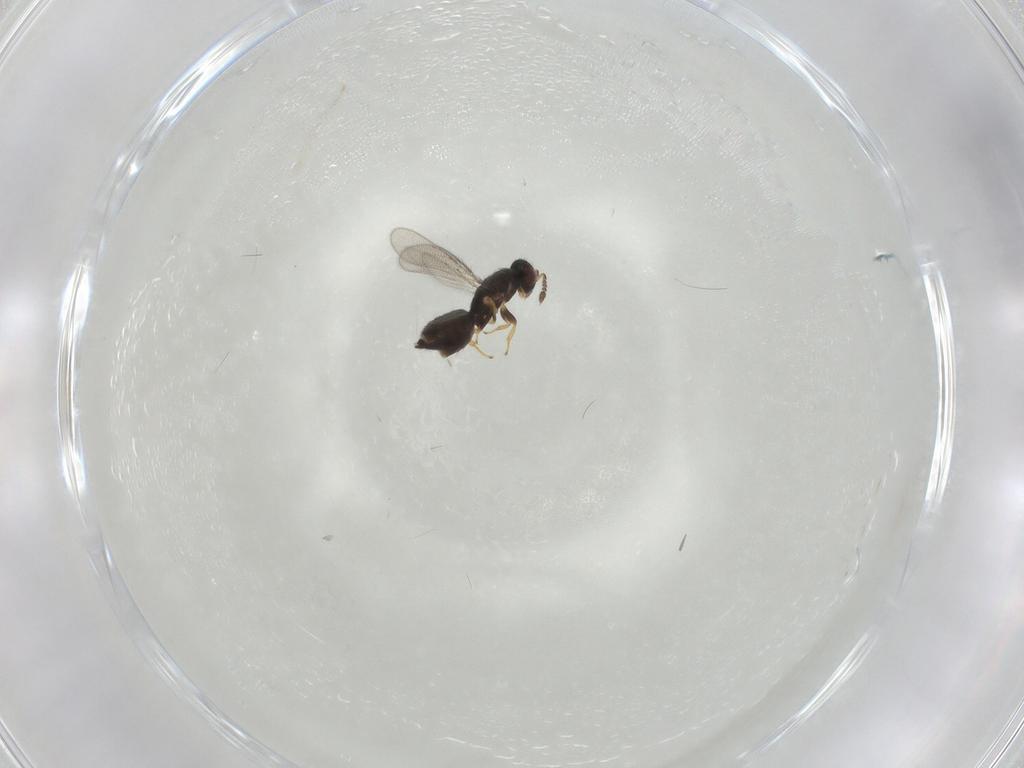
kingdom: Animalia
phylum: Arthropoda
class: Insecta
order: Hymenoptera
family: Eulophidae
